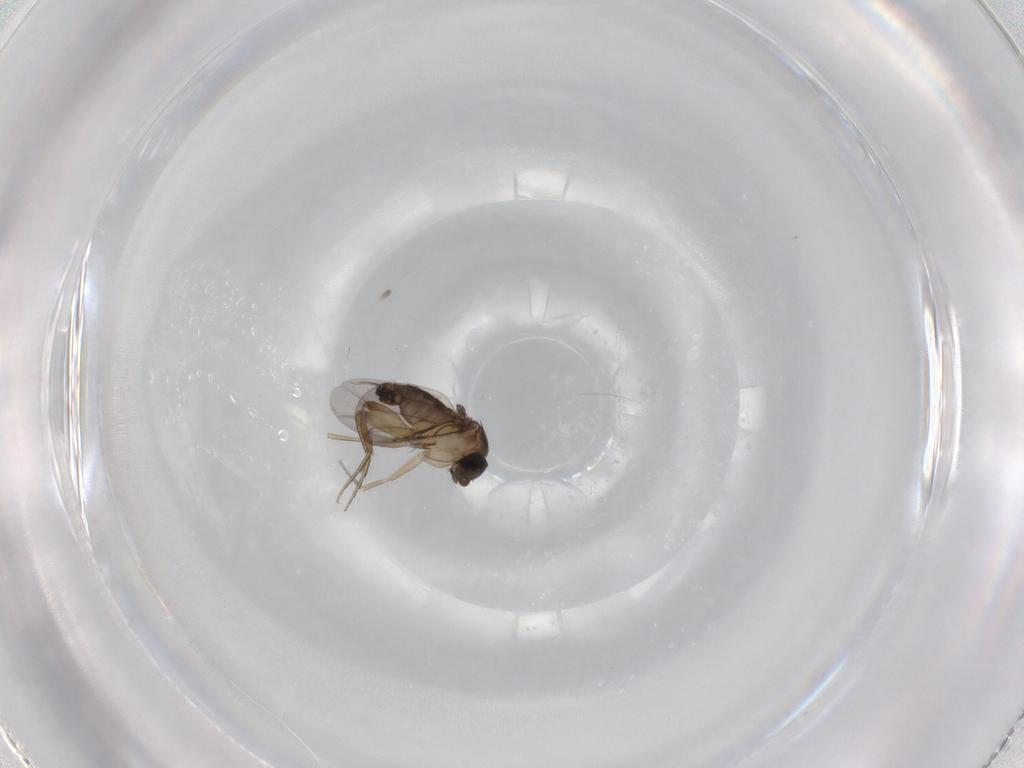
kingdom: Animalia
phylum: Arthropoda
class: Insecta
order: Diptera
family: Phoridae
